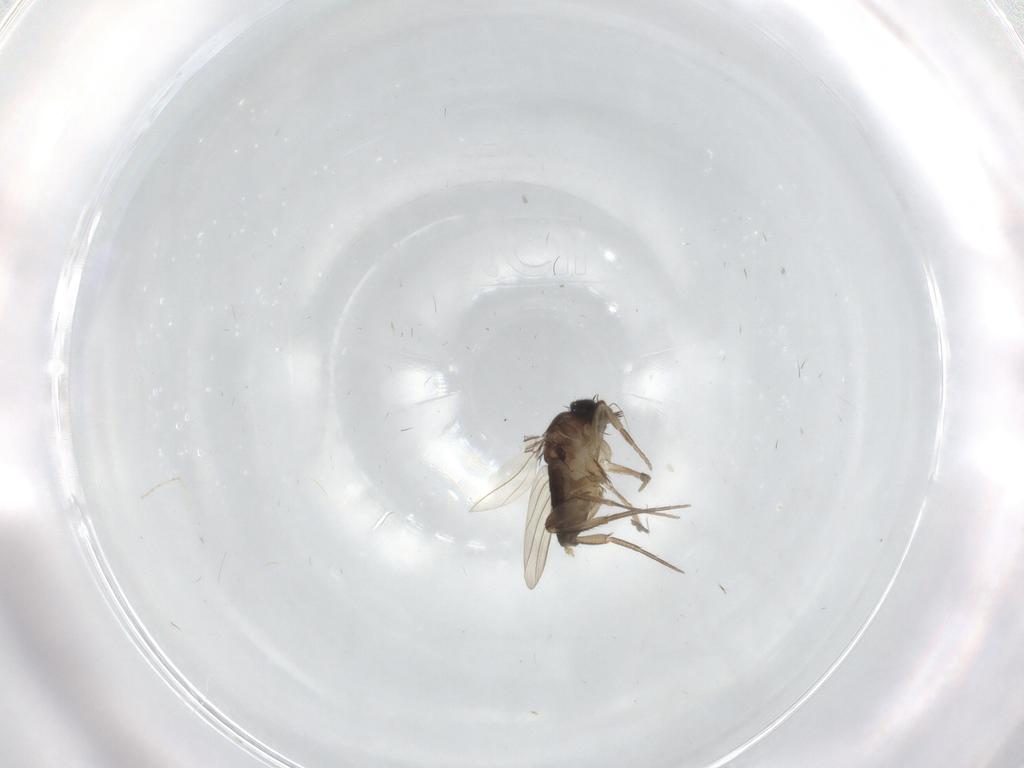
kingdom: Animalia
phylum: Arthropoda
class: Insecta
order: Diptera
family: Phoridae
